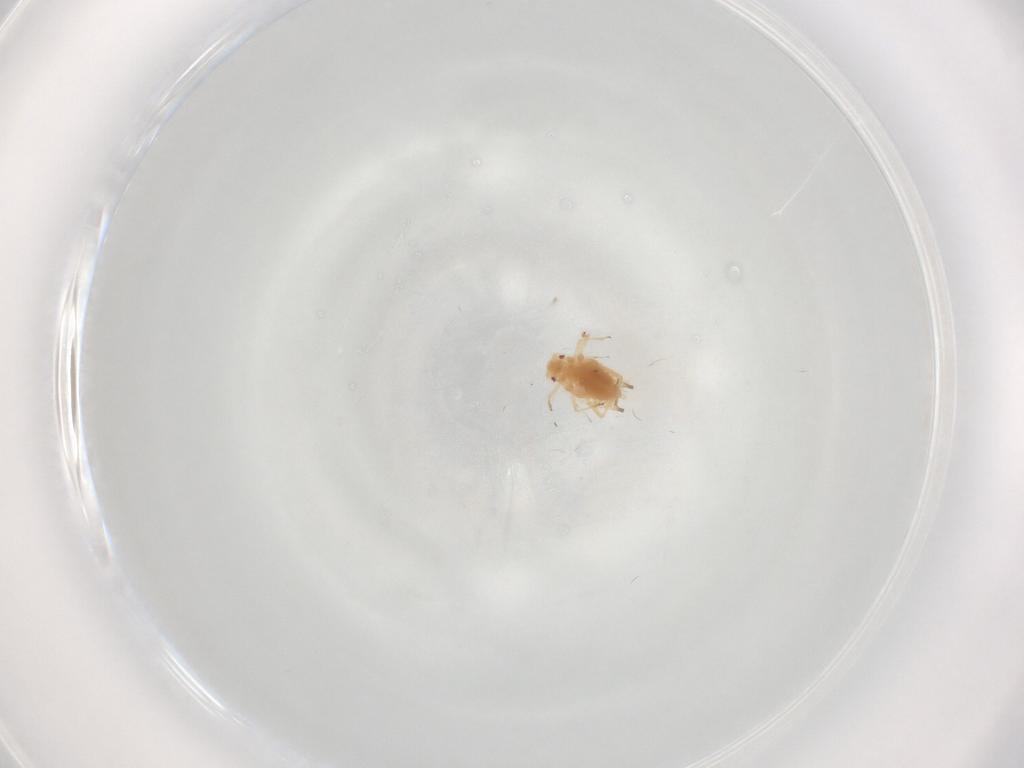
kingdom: Animalia
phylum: Arthropoda
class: Insecta
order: Hemiptera
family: Aphididae
